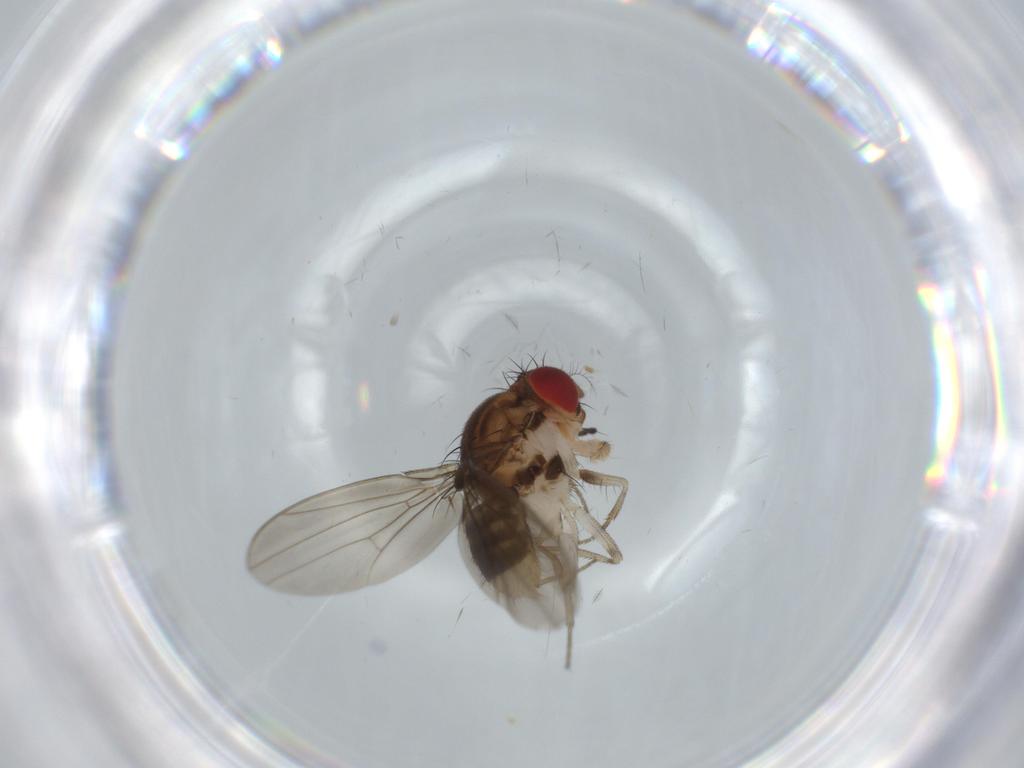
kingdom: Animalia
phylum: Arthropoda
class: Insecta
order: Diptera
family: Drosophilidae
